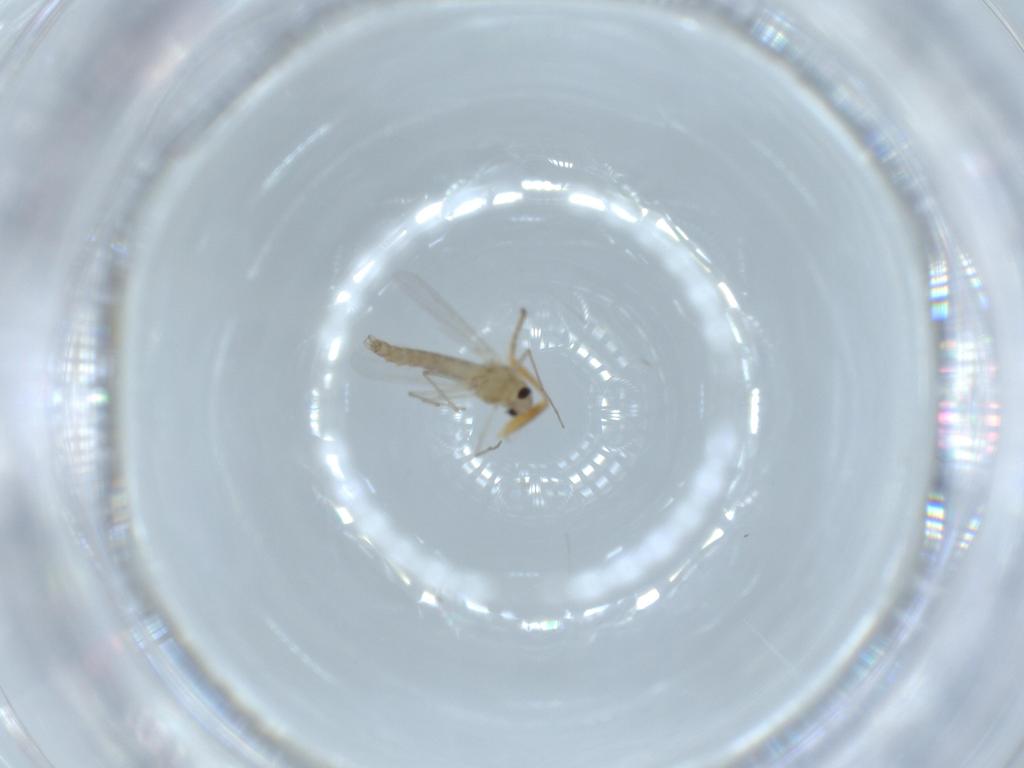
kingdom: Animalia
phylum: Arthropoda
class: Insecta
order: Diptera
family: Chironomidae
